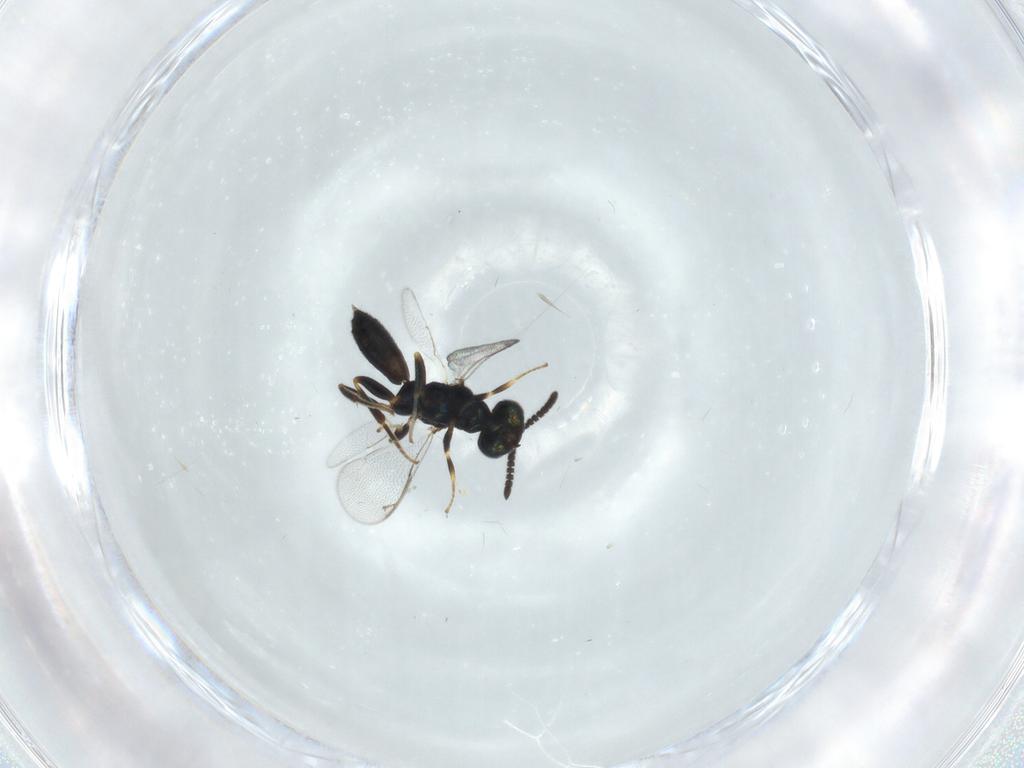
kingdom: Animalia
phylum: Arthropoda
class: Insecta
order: Hymenoptera
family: Cleonyminae
